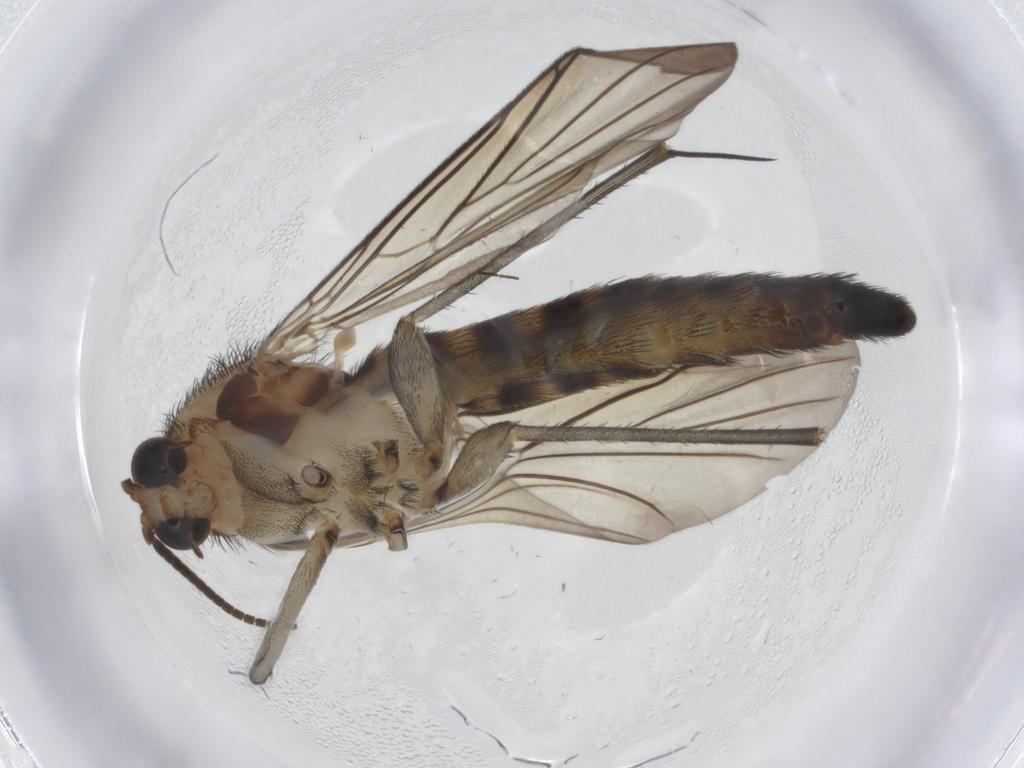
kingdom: Animalia
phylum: Arthropoda
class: Insecta
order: Diptera
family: Keroplatidae
